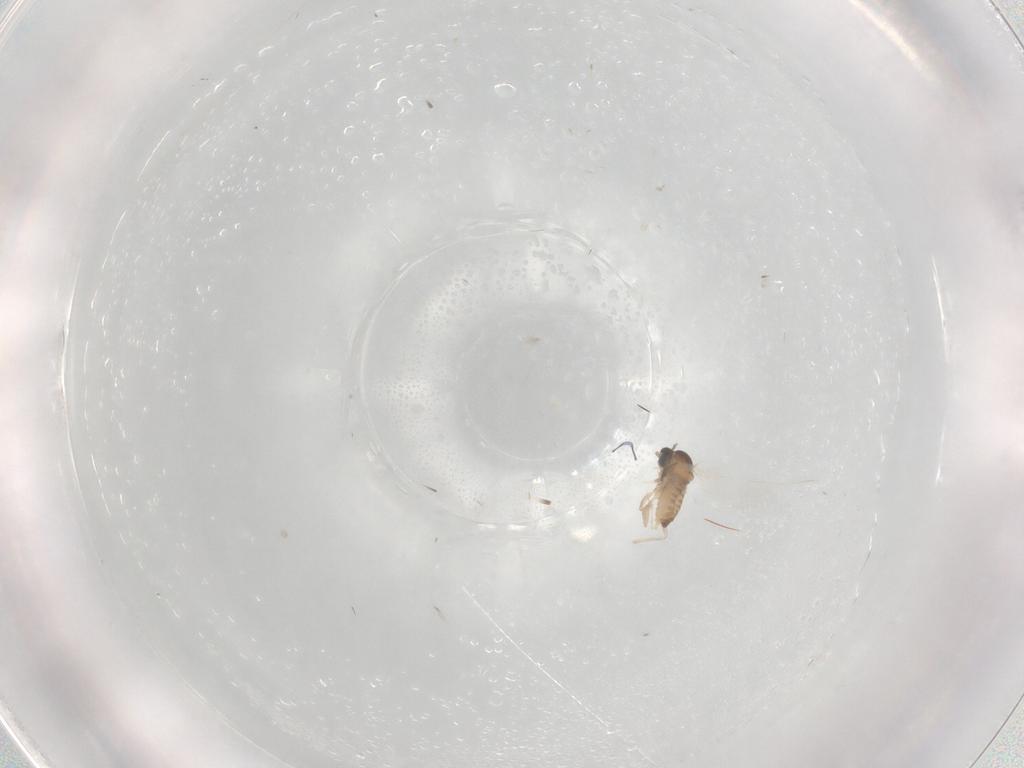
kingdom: Animalia
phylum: Arthropoda
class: Insecta
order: Diptera
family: Cecidomyiidae
